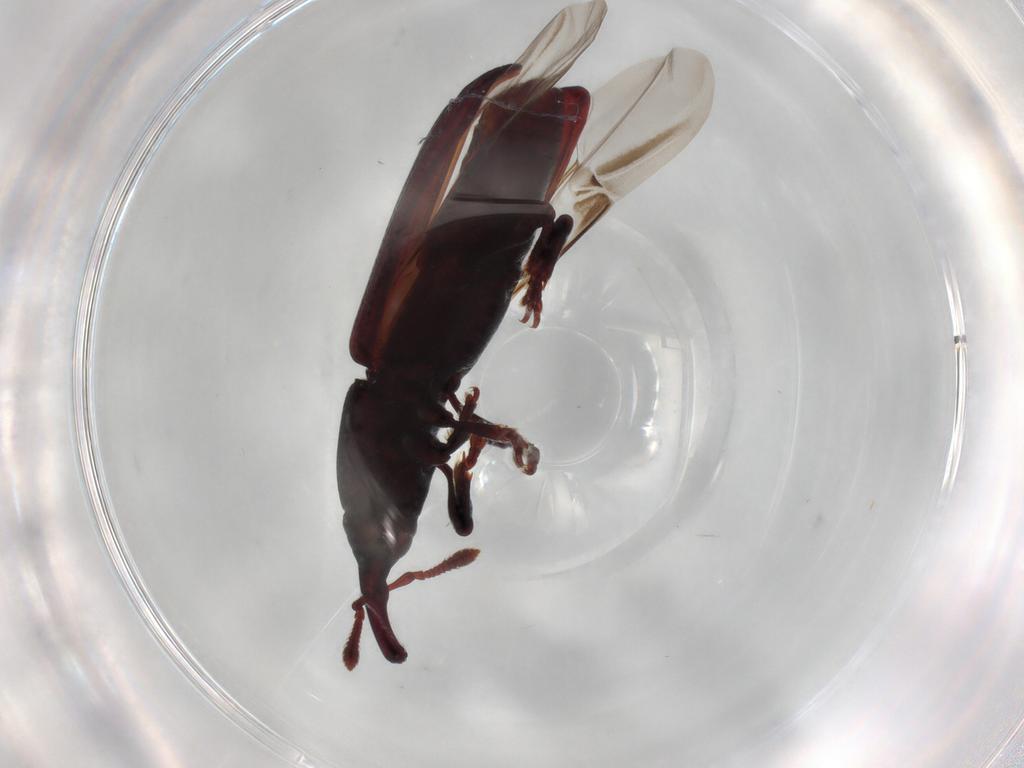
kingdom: Animalia
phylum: Arthropoda
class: Insecta
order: Coleoptera
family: Curculionidae
